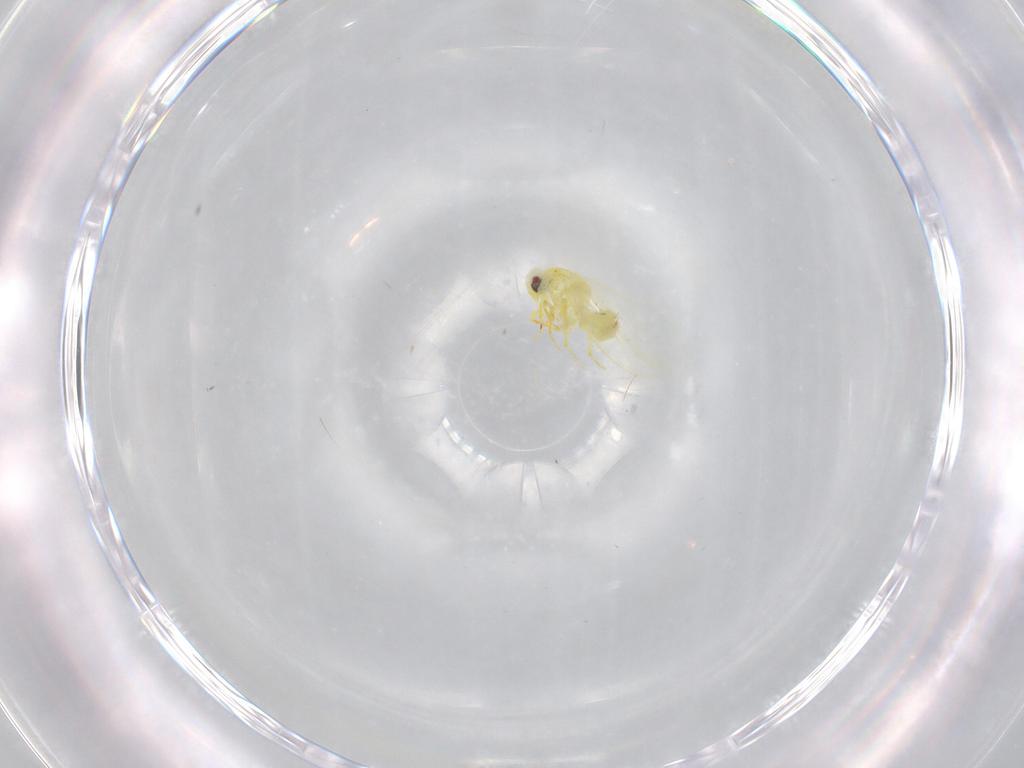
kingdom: Animalia
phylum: Arthropoda
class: Insecta
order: Hemiptera
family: Aleyrodidae
